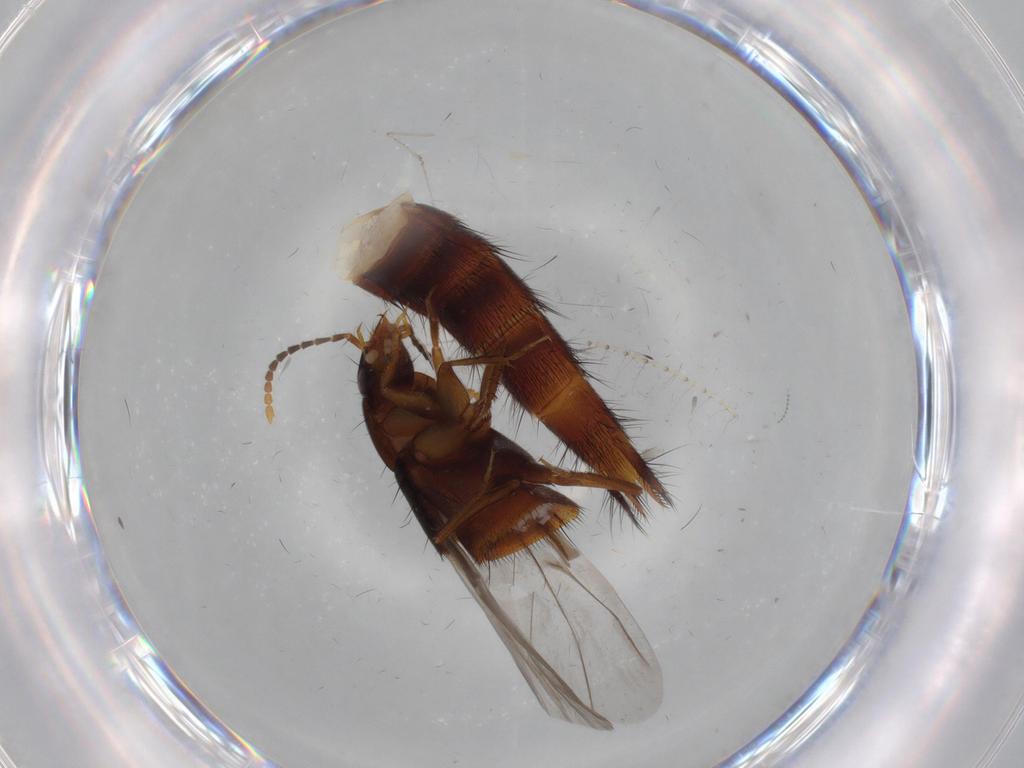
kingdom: Animalia
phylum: Arthropoda
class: Insecta
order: Coleoptera
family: Staphylinidae
